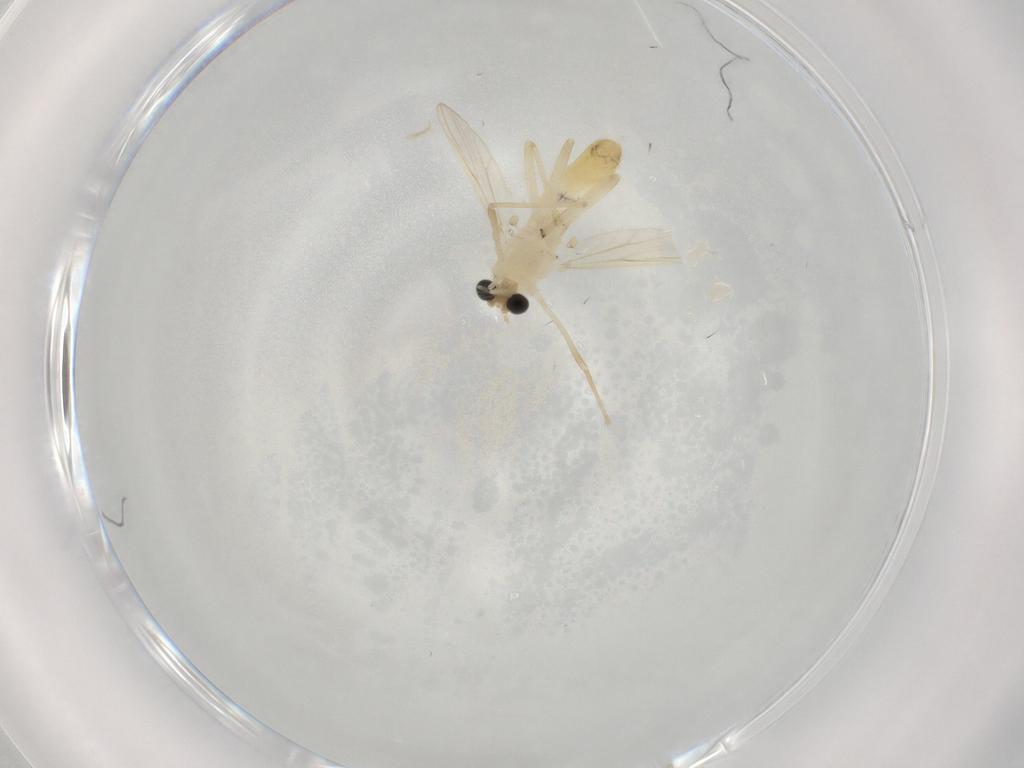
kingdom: Animalia
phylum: Arthropoda
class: Insecta
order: Diptera
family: Chironomidae
